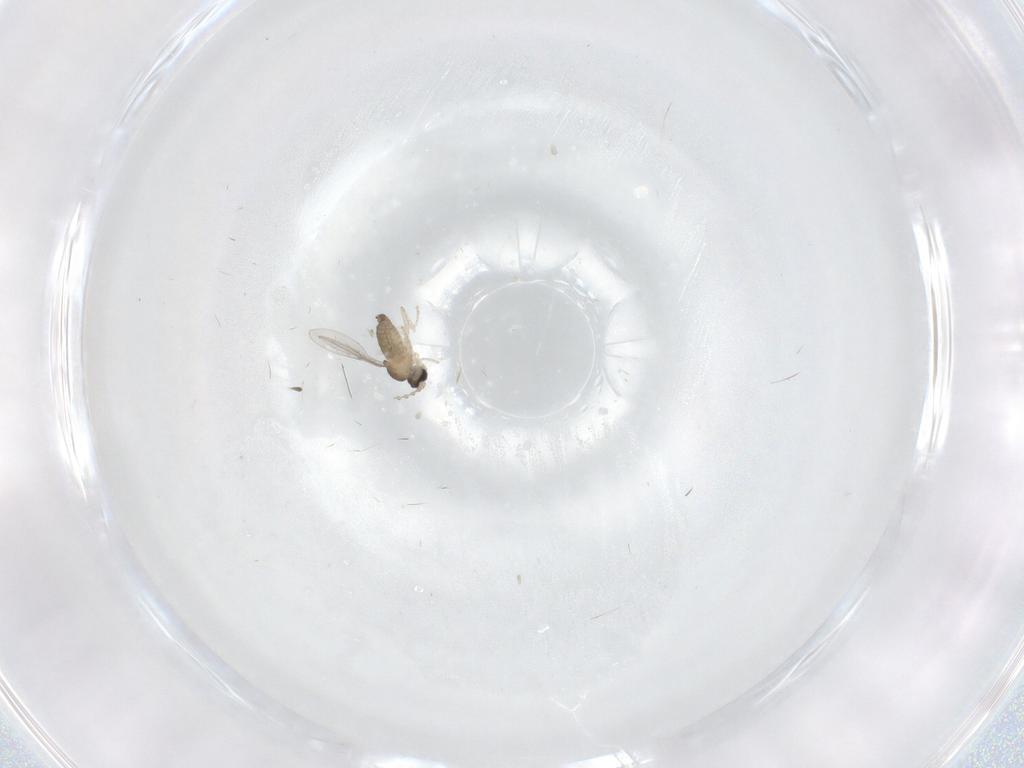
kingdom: Animalia
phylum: Arthropoda
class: Insecta
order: Diptera
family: Cecidomyiidae
